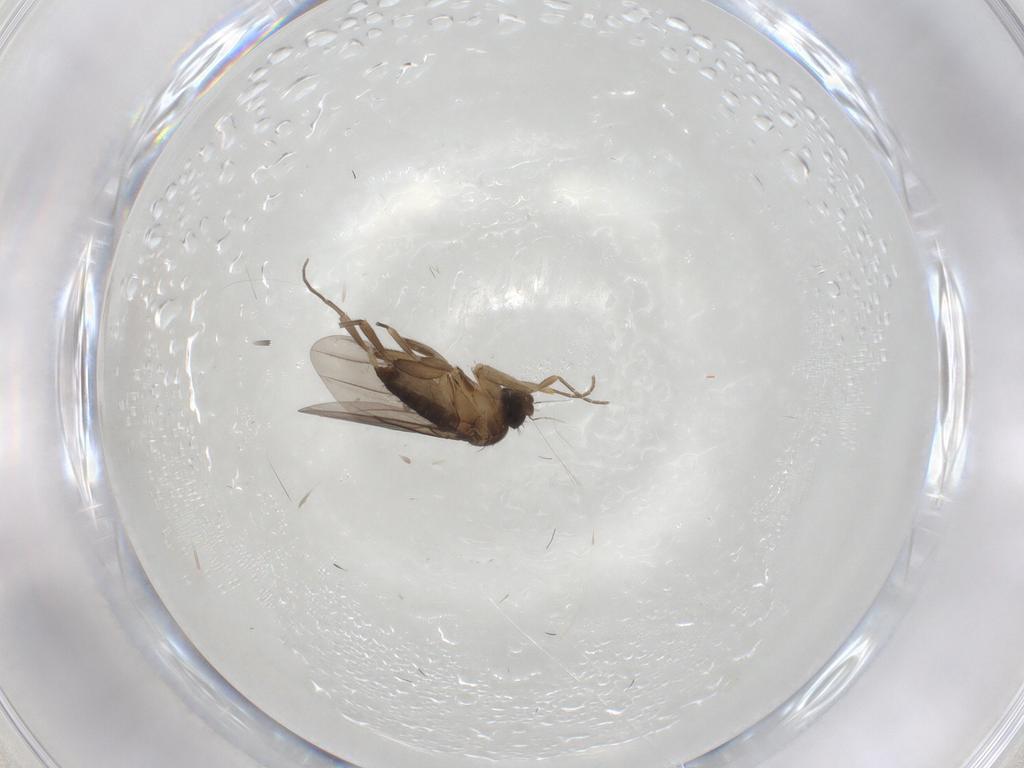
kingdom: Animalia
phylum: Arthropoda
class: Insecta
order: Diptera
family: Phoridae
